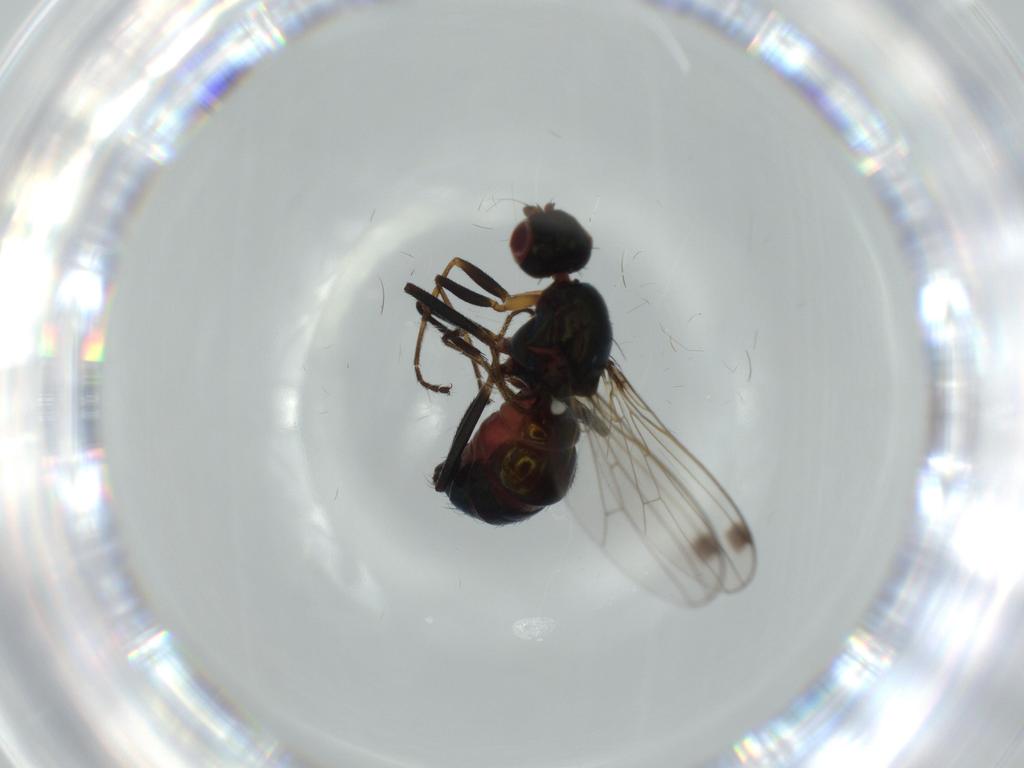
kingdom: Animalia
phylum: Arthropoda
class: Insecta
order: Diptera
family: Sepsidae
